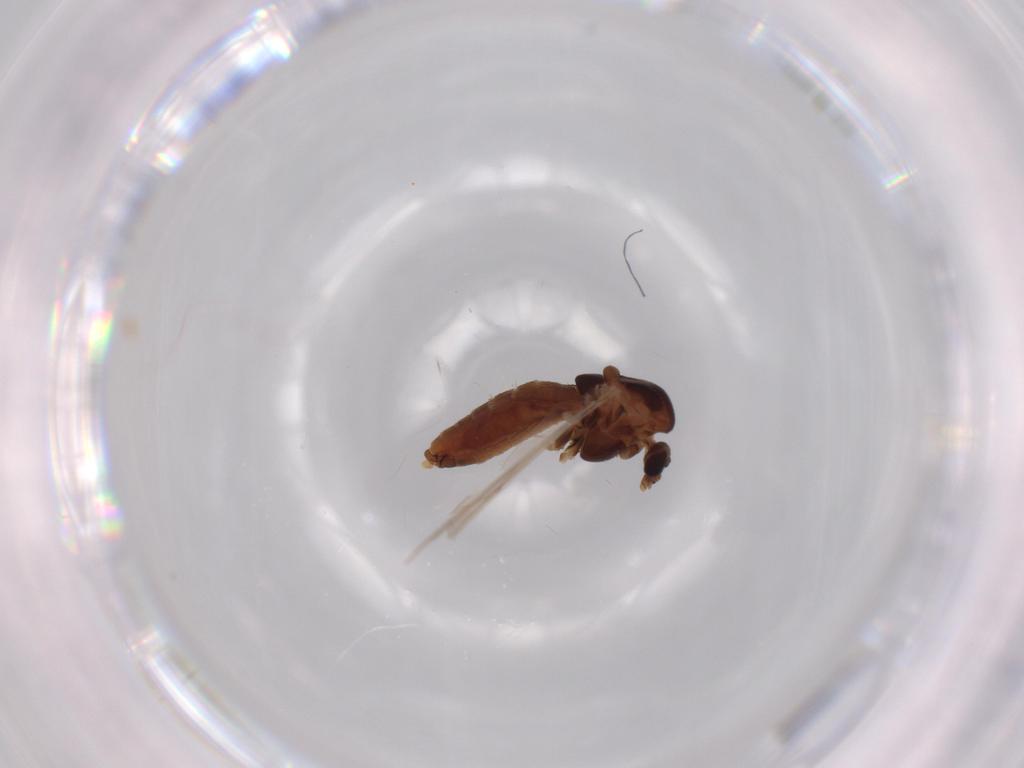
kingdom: Animalia
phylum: Arthropoda
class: Insecta
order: Diptera
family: Chironomidae
